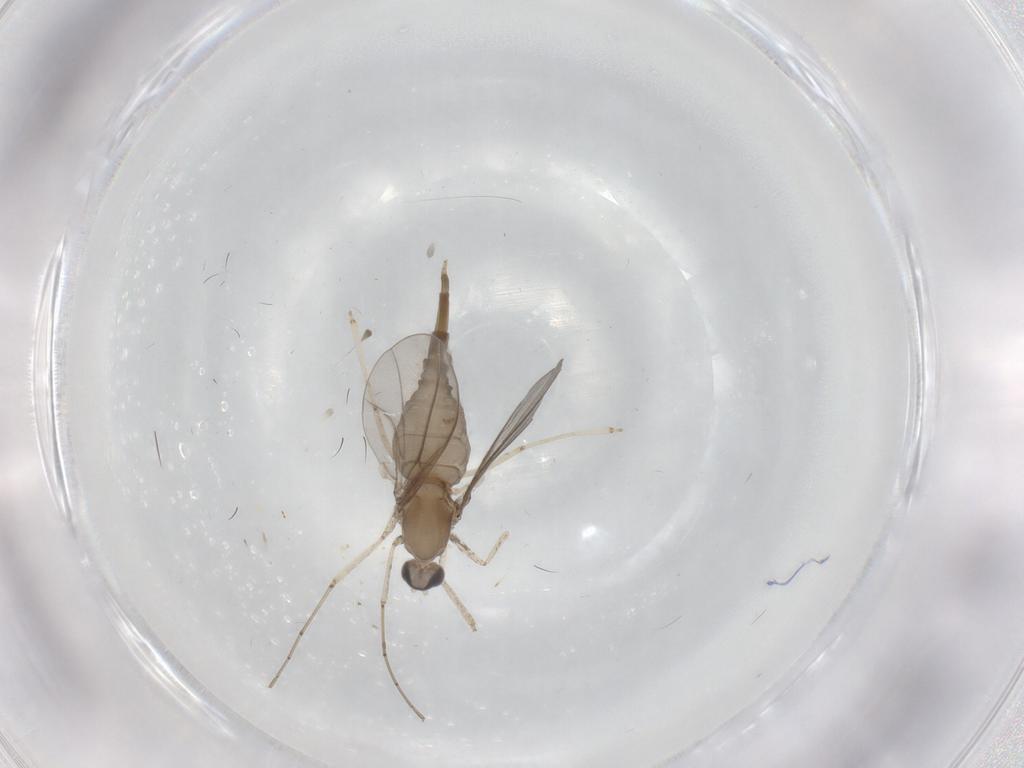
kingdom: Animalia
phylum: Arthropoda
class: Insecta
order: Diptera
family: Cecidomyiidae
